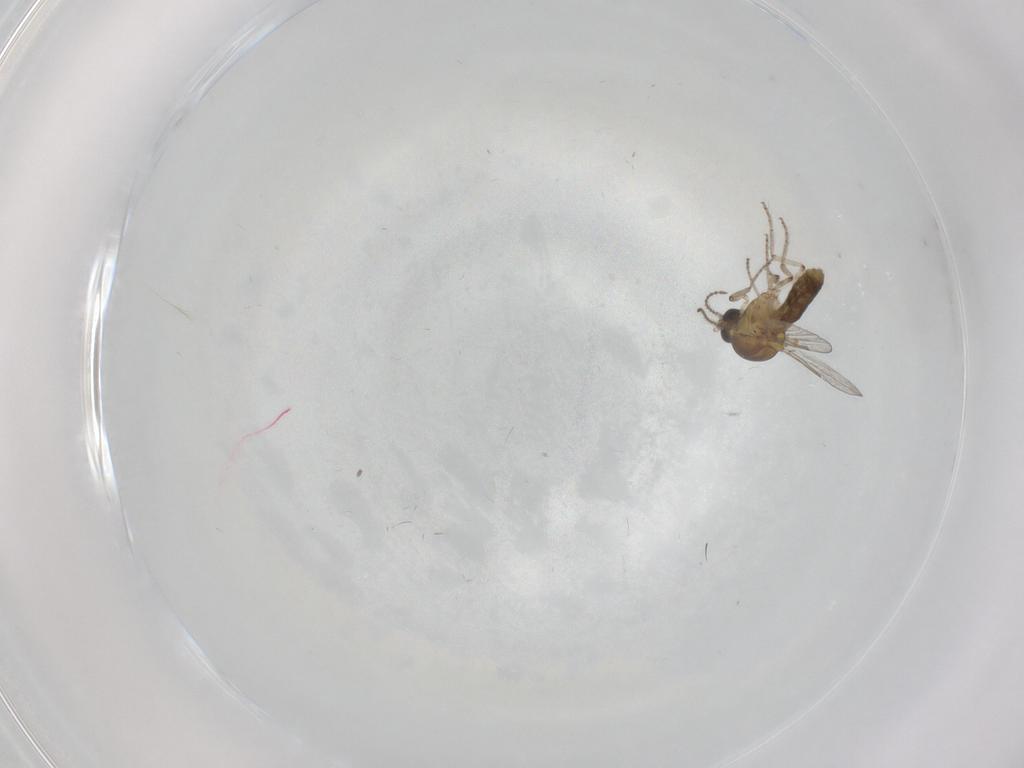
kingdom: Animalia
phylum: Arthropoda
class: Insecta
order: Diptera
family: Ceratopogonidae
